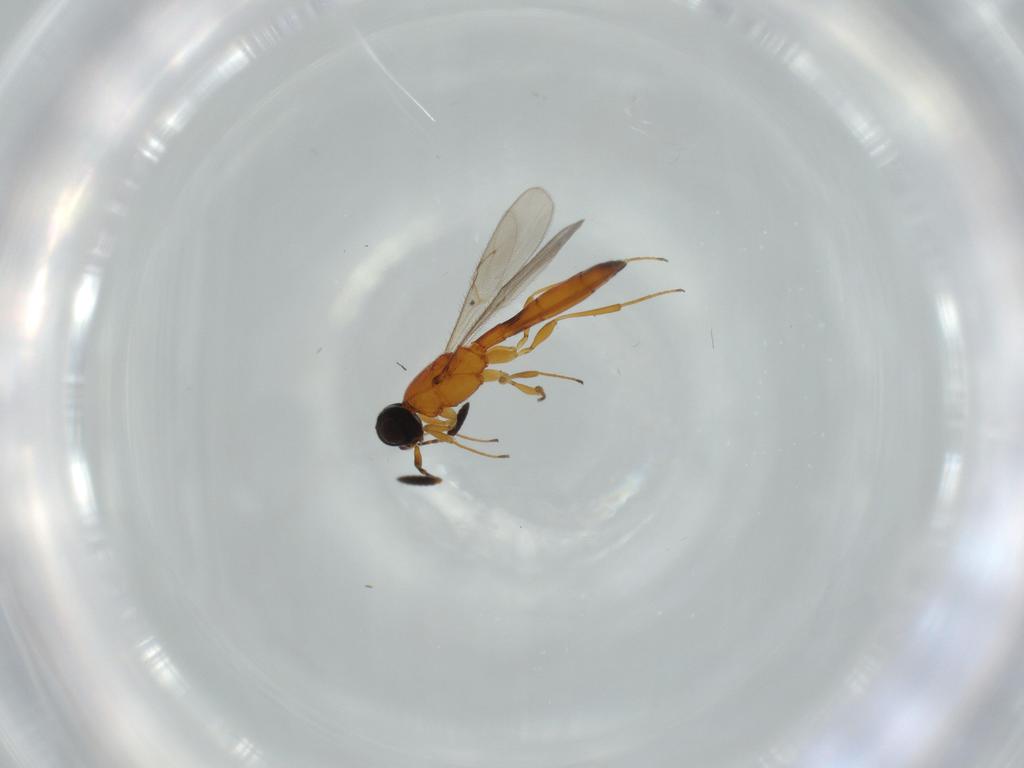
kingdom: Animalia
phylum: Arthropoda
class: Insecta
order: Hymenoptera
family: Scelionidae
